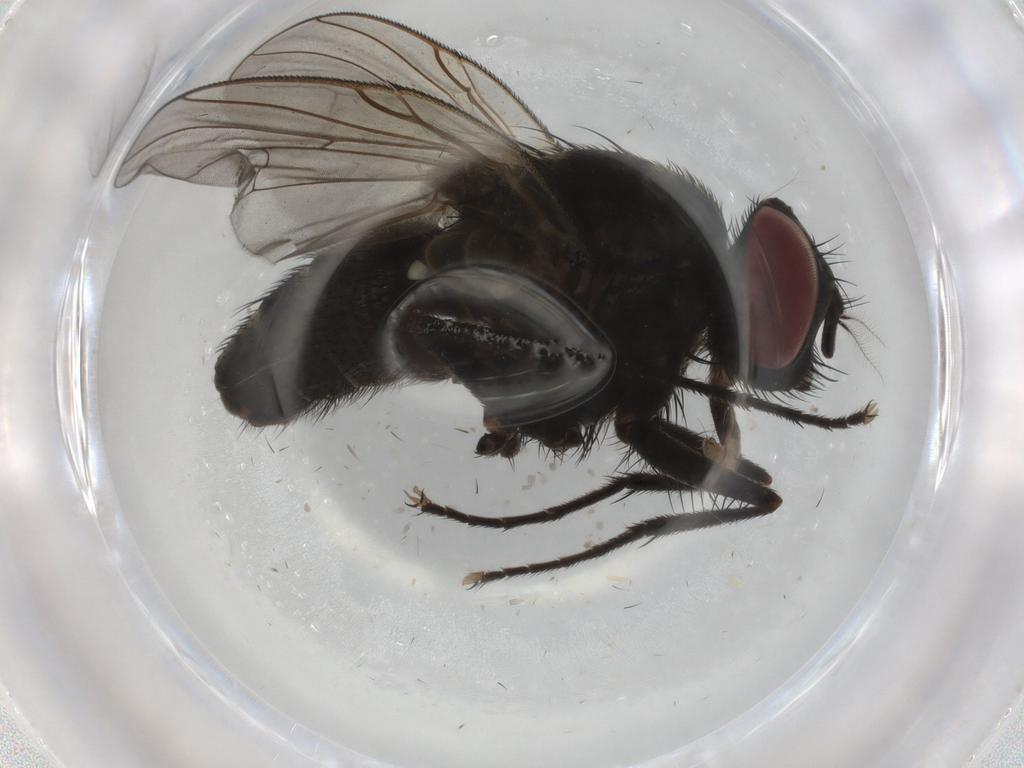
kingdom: Animalia
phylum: Arthropoda
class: Insecta
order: Diptera
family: Muscidae
